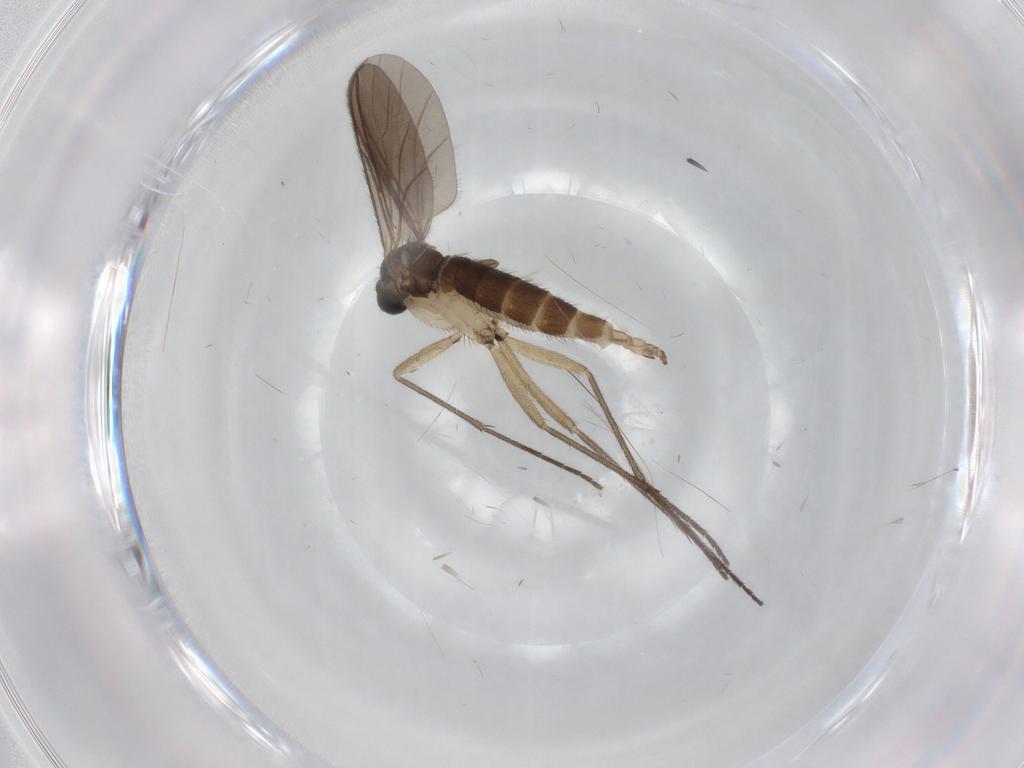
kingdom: Animalia
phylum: Arthropoda
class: Insecta
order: Diptera
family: Sciaridae
